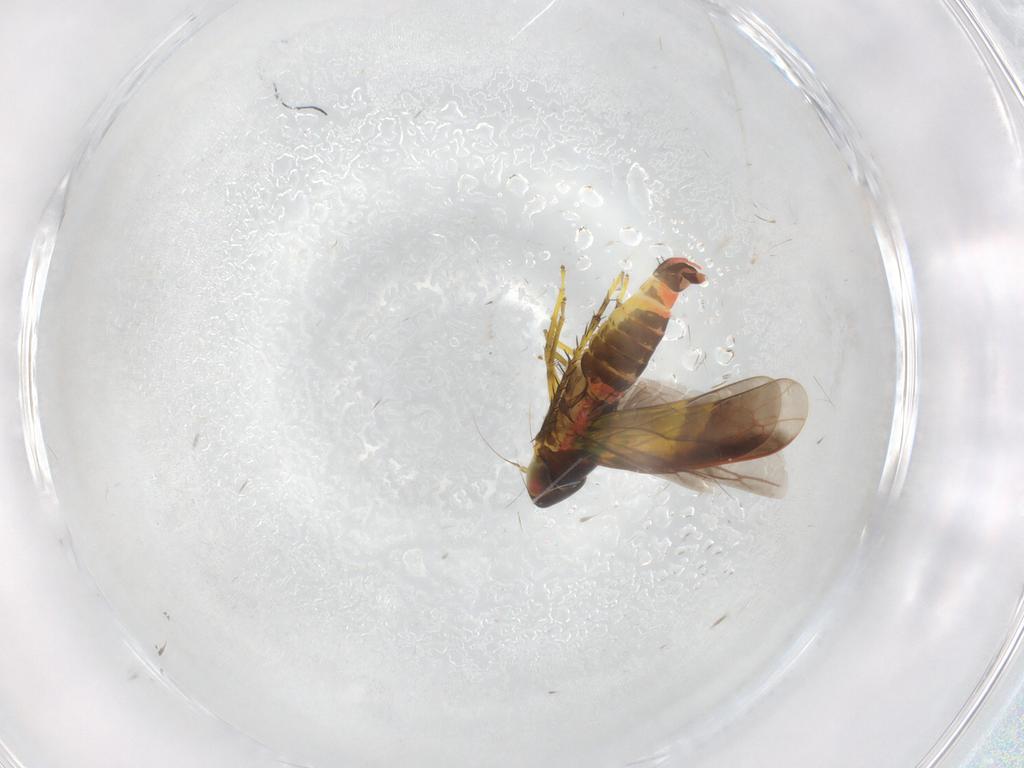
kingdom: Animalia
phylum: Arthropoda
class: Insecta
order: Hemiptera
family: Cicadellidae
